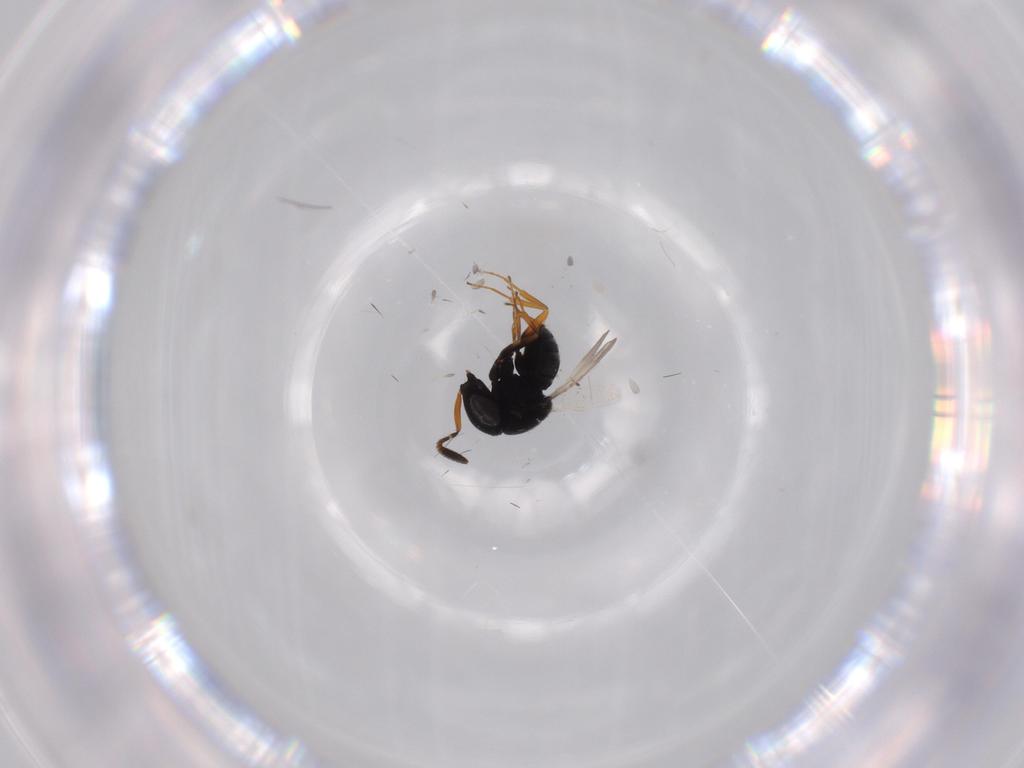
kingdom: Animalia
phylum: Arthropoda
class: Insecta
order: Hymenoptera
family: Scelionidae
